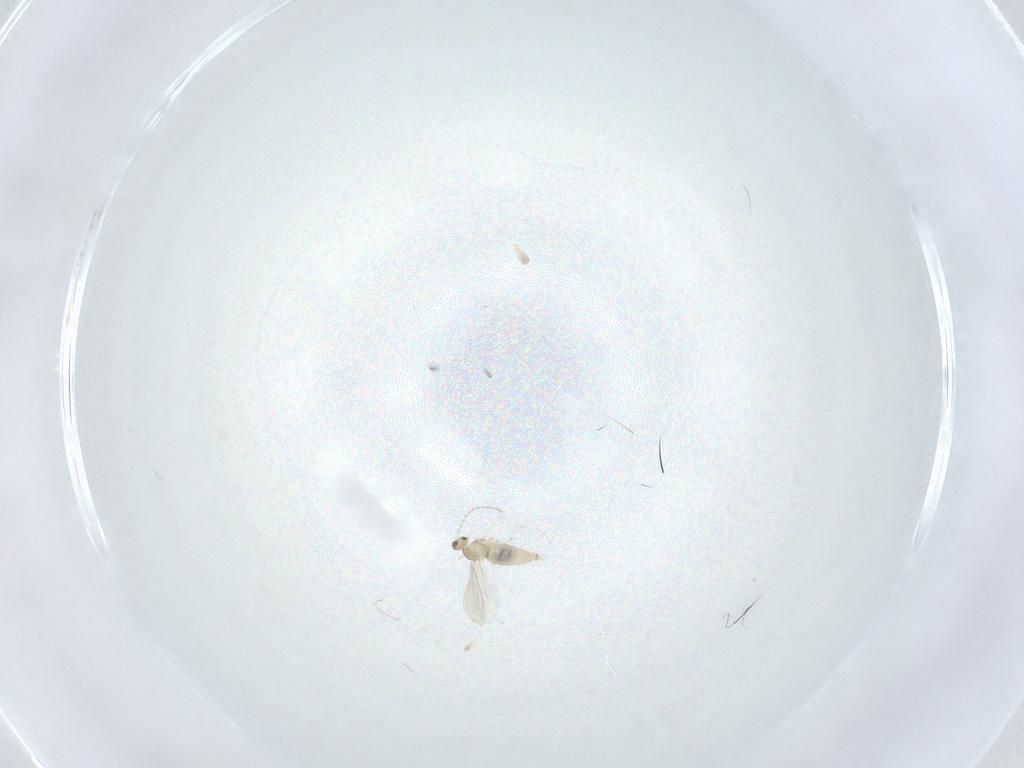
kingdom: Animalia
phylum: Arthropoda
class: Insecta
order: Diptera
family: Cecidomyiidae
